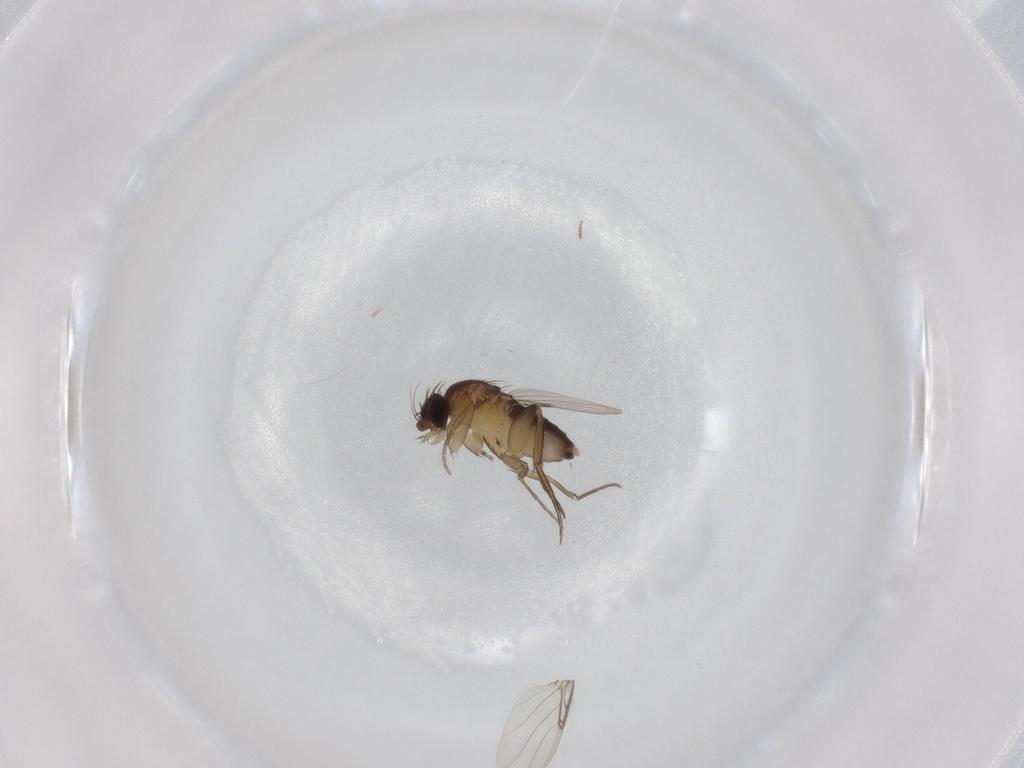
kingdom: Animalia
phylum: Arthropoda
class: Insecta
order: Diptera
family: Phoridae
